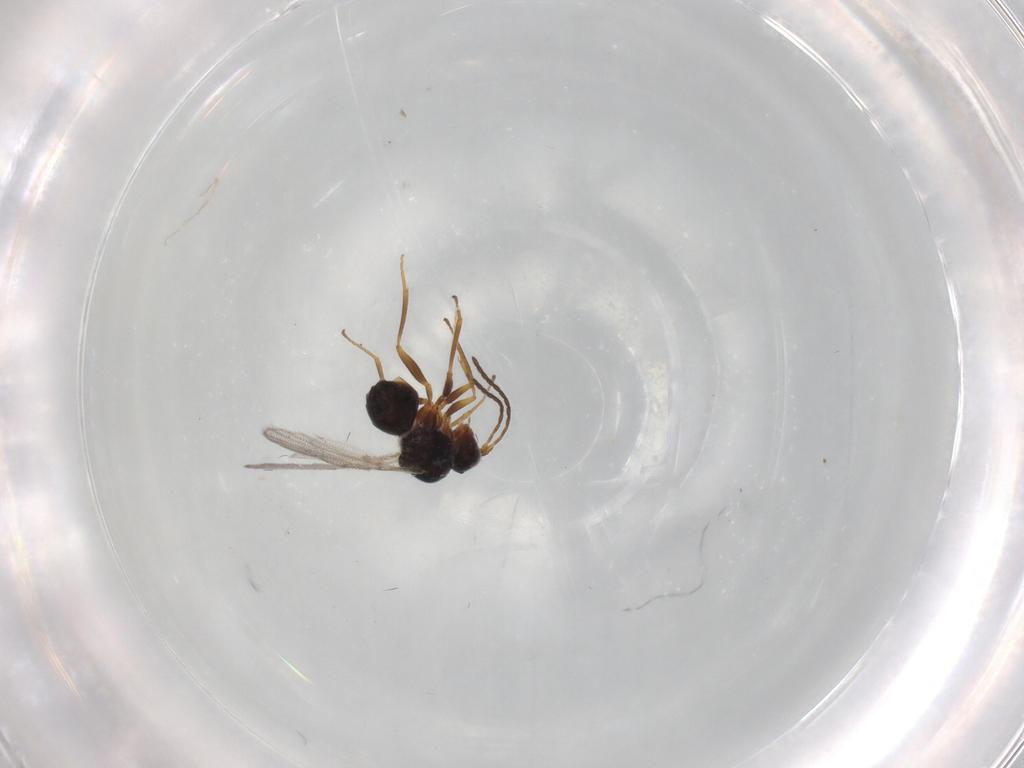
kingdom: Animalia
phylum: Arthropoda
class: Insecta
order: Hymenoptera
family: Figitidae
